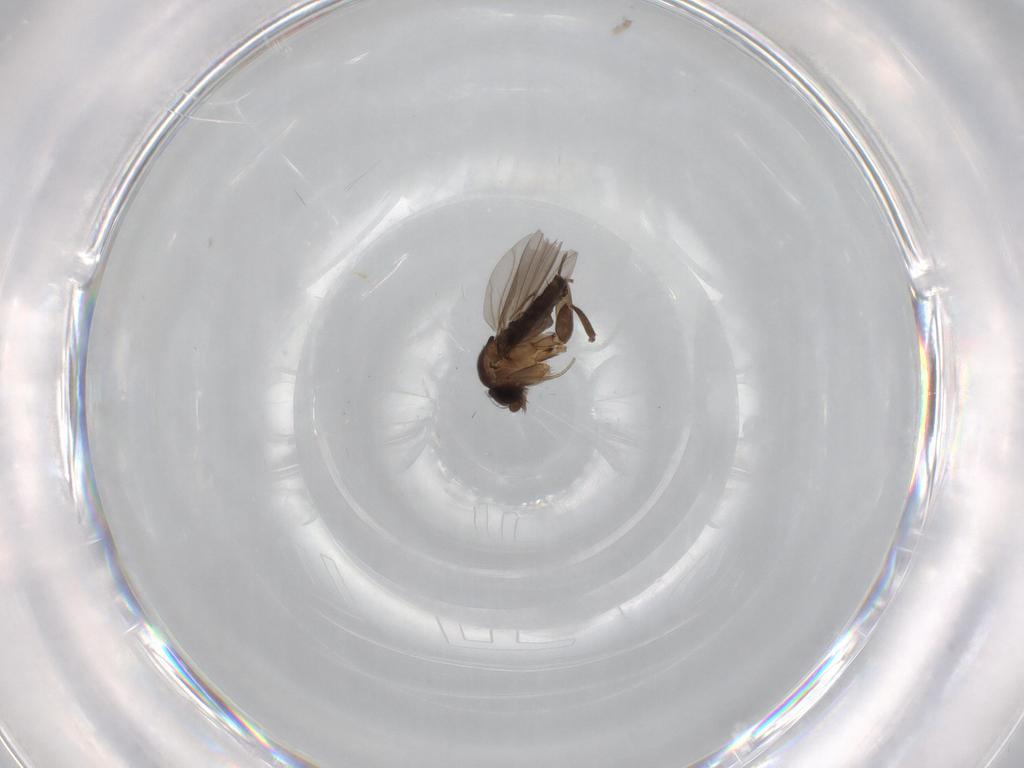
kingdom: Animalia
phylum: Arthropoda
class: Insecta
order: Diptera
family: Phoridae
